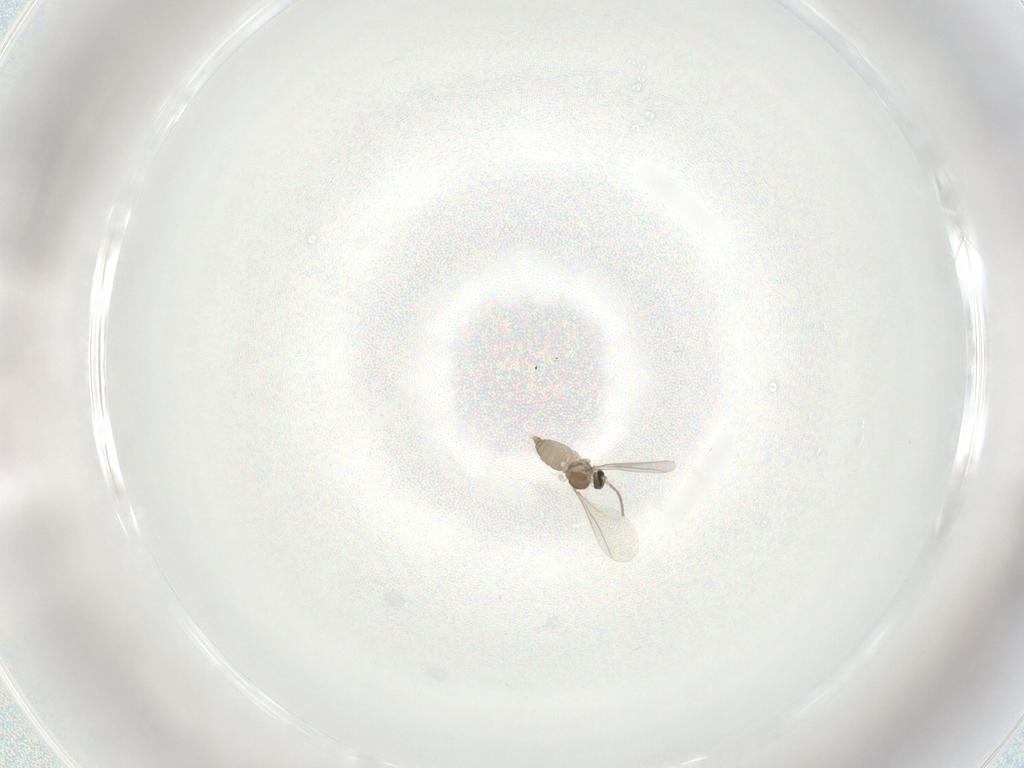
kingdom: Animalia
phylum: Arthropoda
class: Insecta
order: Diptera
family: Cecidomyiidae
